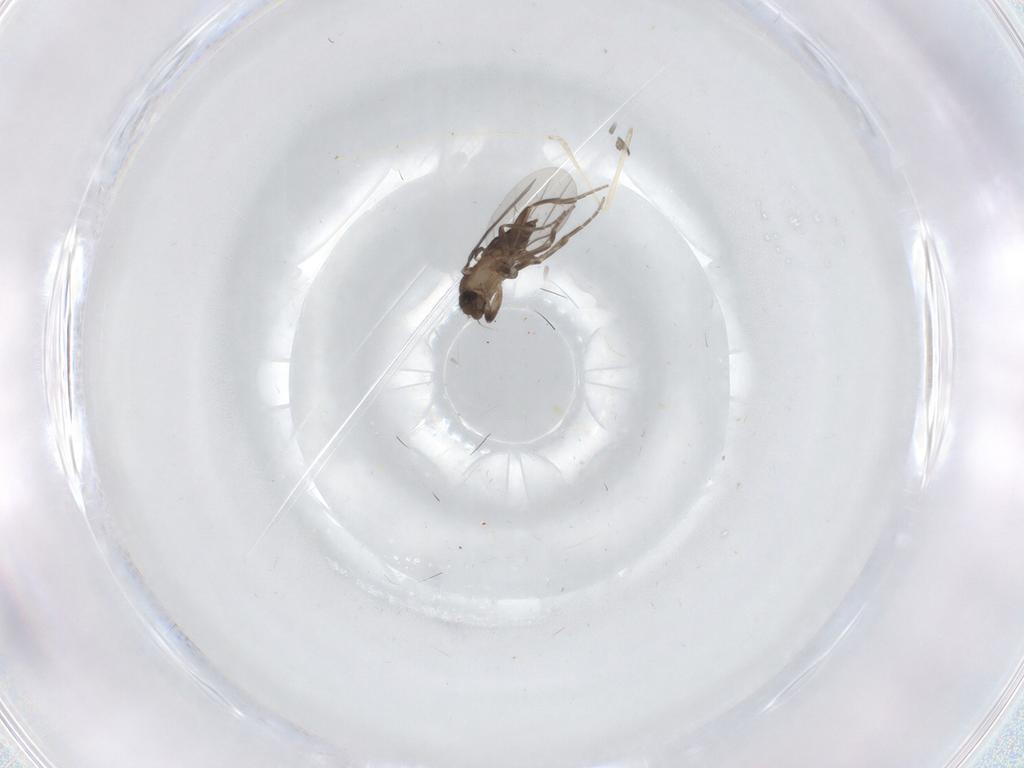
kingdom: Animalia
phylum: Arthropoda
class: Insecta
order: Diptera
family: Cecidomyiidae
